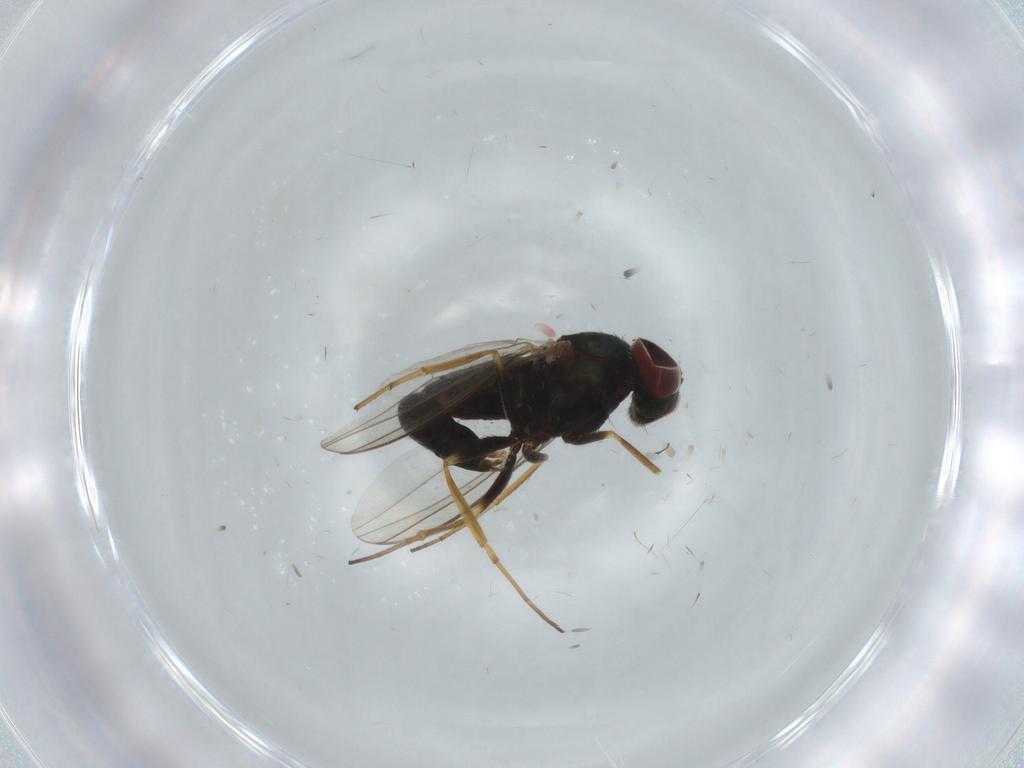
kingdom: Animalia
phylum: Arthropoda
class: Insecta
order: Diptera
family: Dolichopodidae
